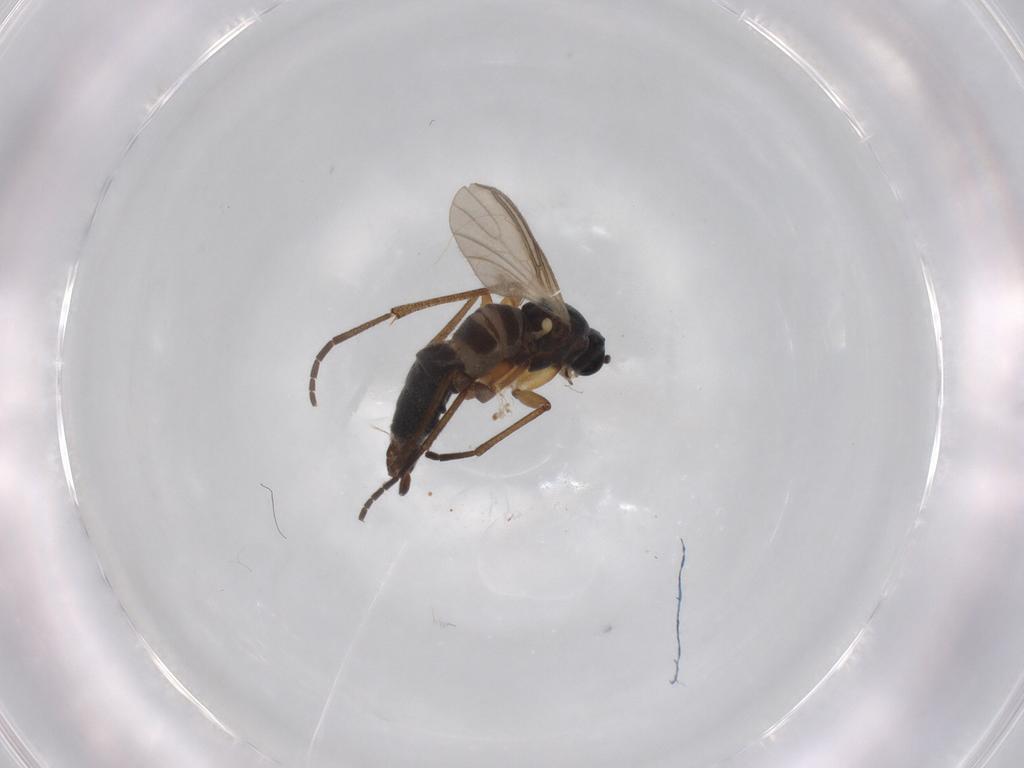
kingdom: Animalia
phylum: Arthropoda
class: Insecta
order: Diptera
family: Sciaridae
